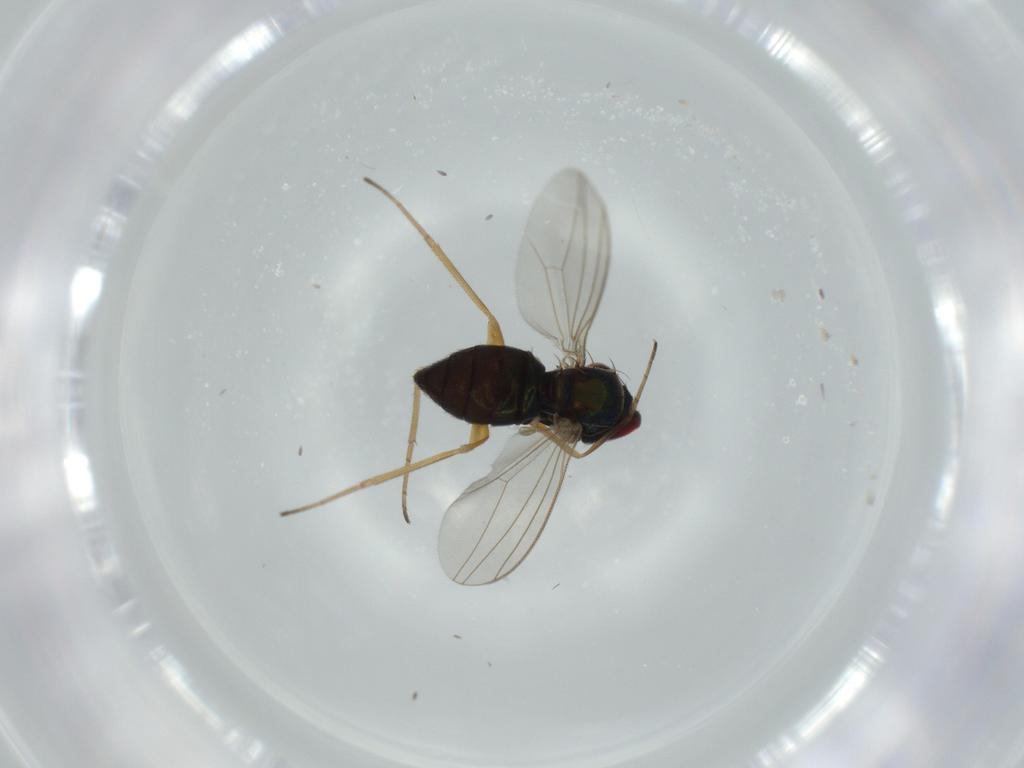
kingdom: Animalia
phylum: Arthropoda
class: Insecta
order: Diptera
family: Dolichopodidae
